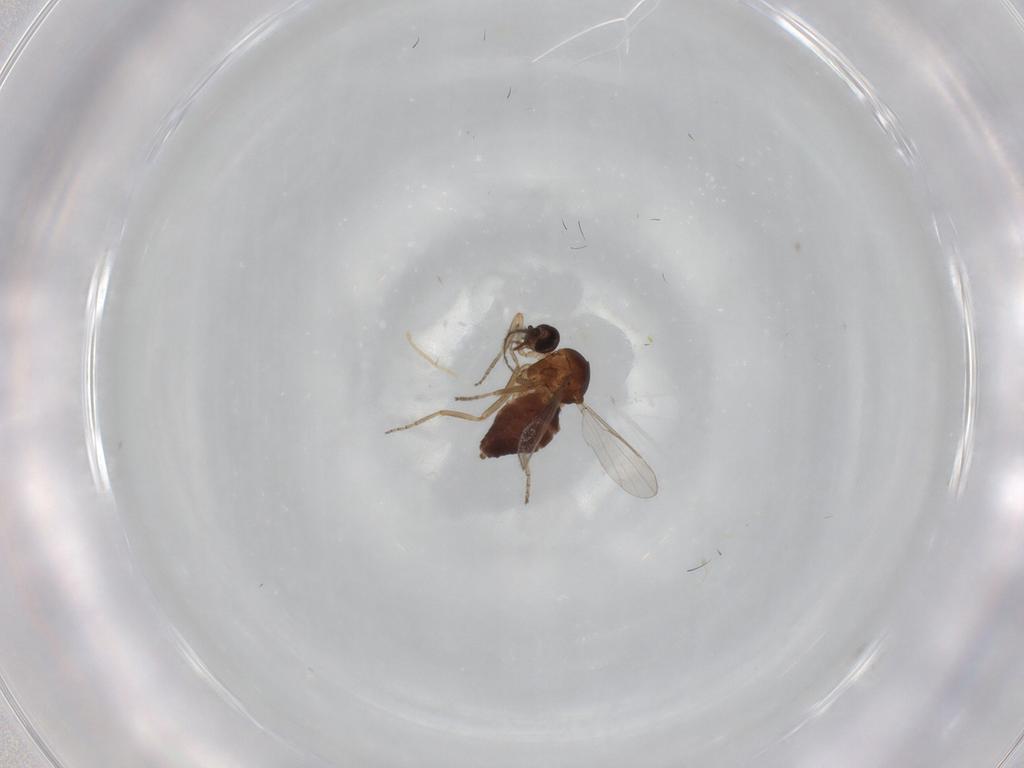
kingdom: Animalia
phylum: Arthropoda
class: Insecta
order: Diptera
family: Ceratopogonidae
